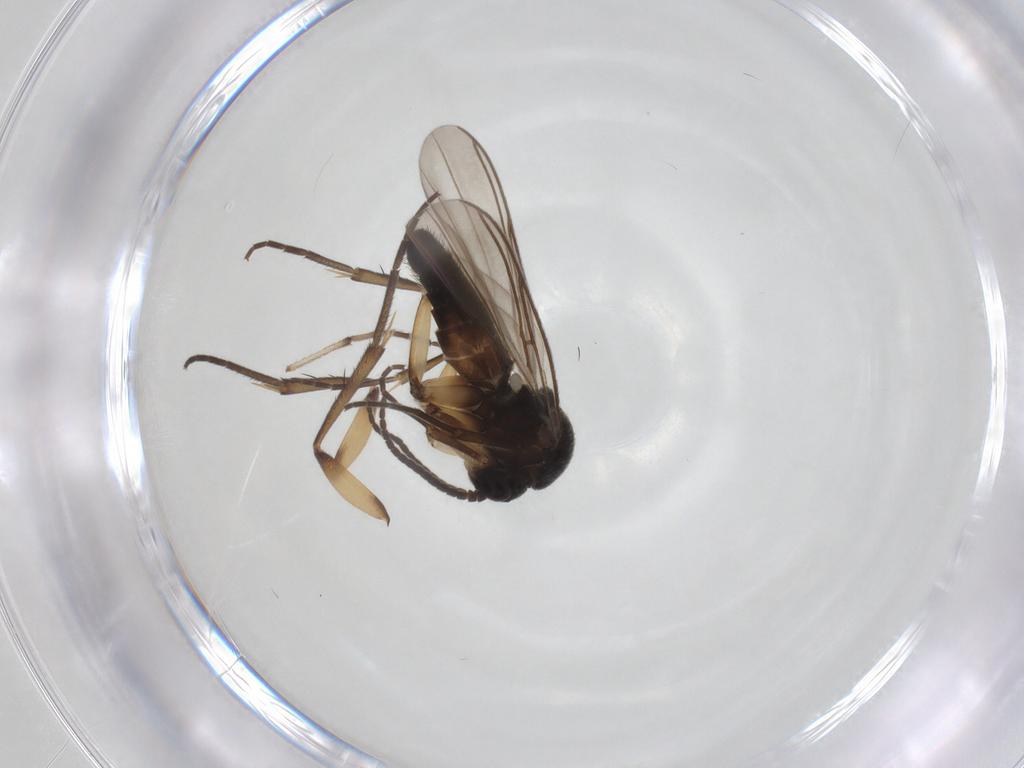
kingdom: Animalia
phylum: Arthropoda
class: Insecta
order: Diptera
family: Mycetophilidae
